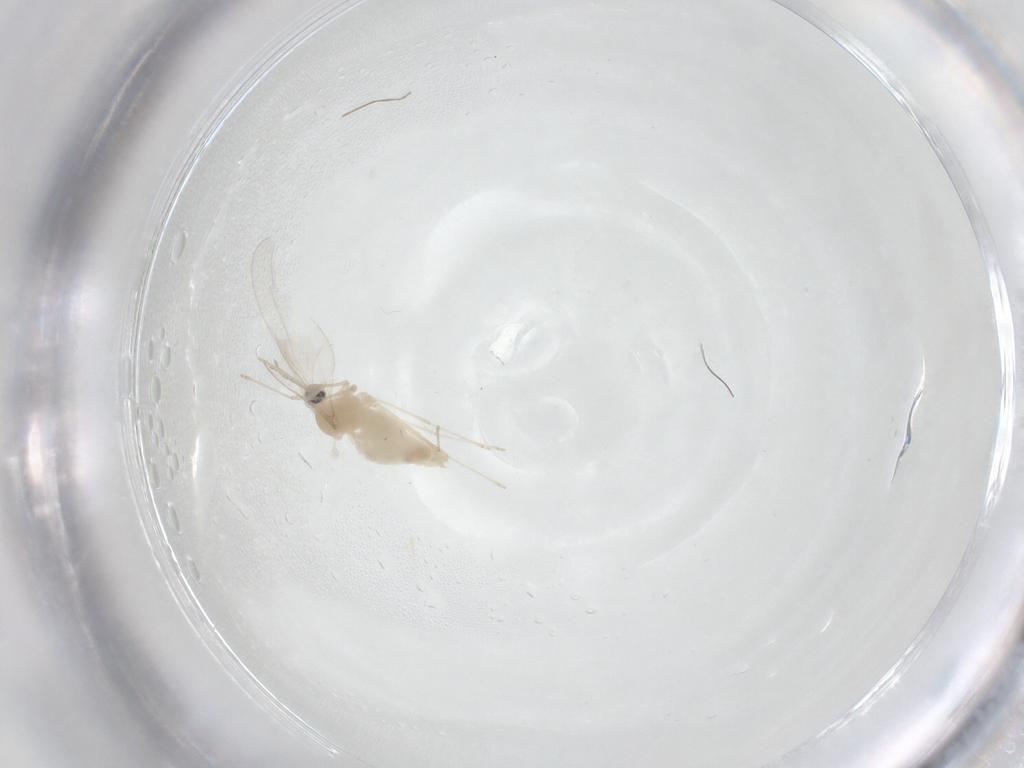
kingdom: Animalia
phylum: Arthropoda
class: Insecta
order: Diptera
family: Cecidomyiidae
